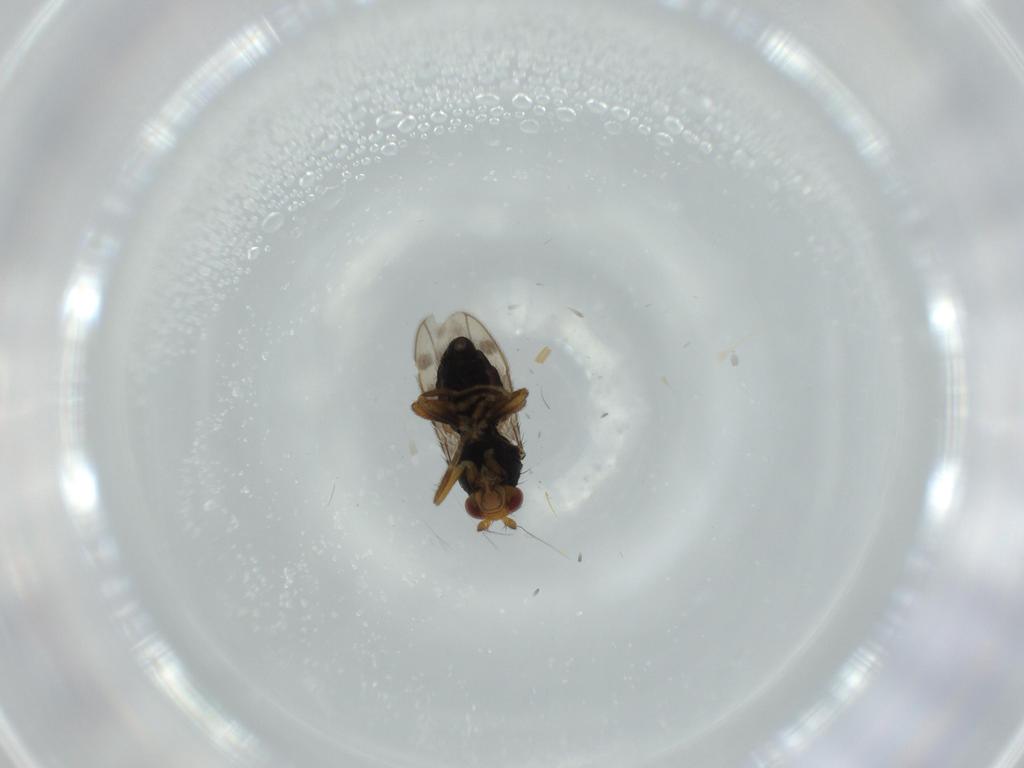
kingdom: Animalia
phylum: Arthropoda
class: Insecta
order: Diptera
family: Sphaeroceridae
